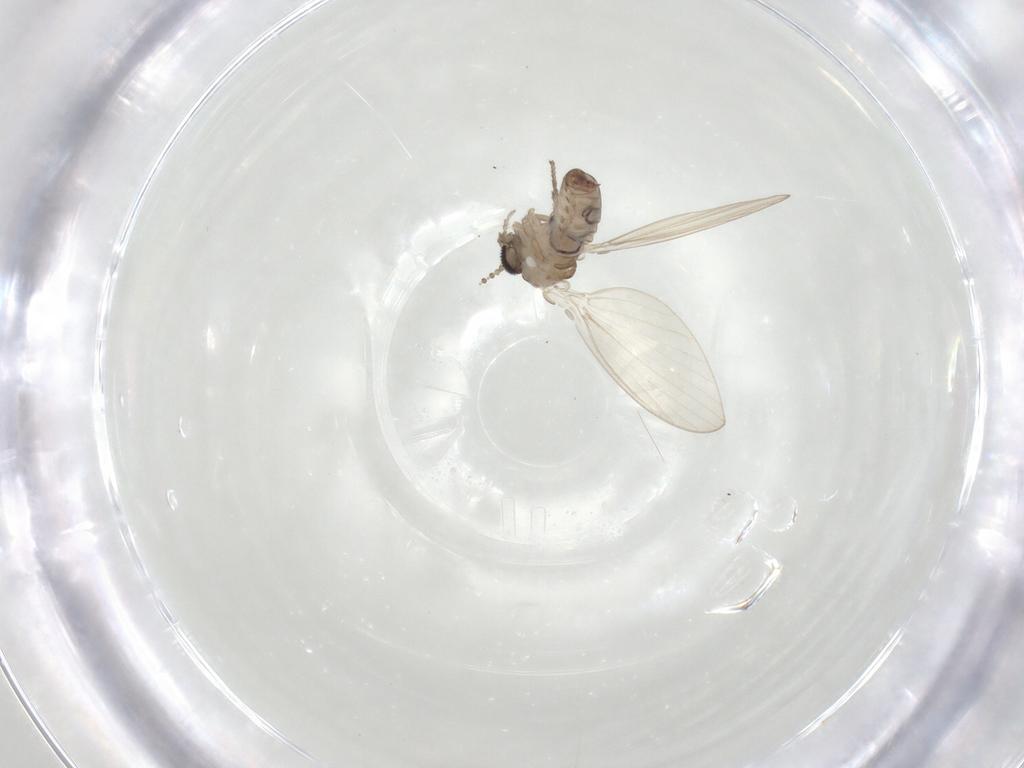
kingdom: Animalia
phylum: Arthropoda
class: Insecta
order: Diptera
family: Psychodidae
